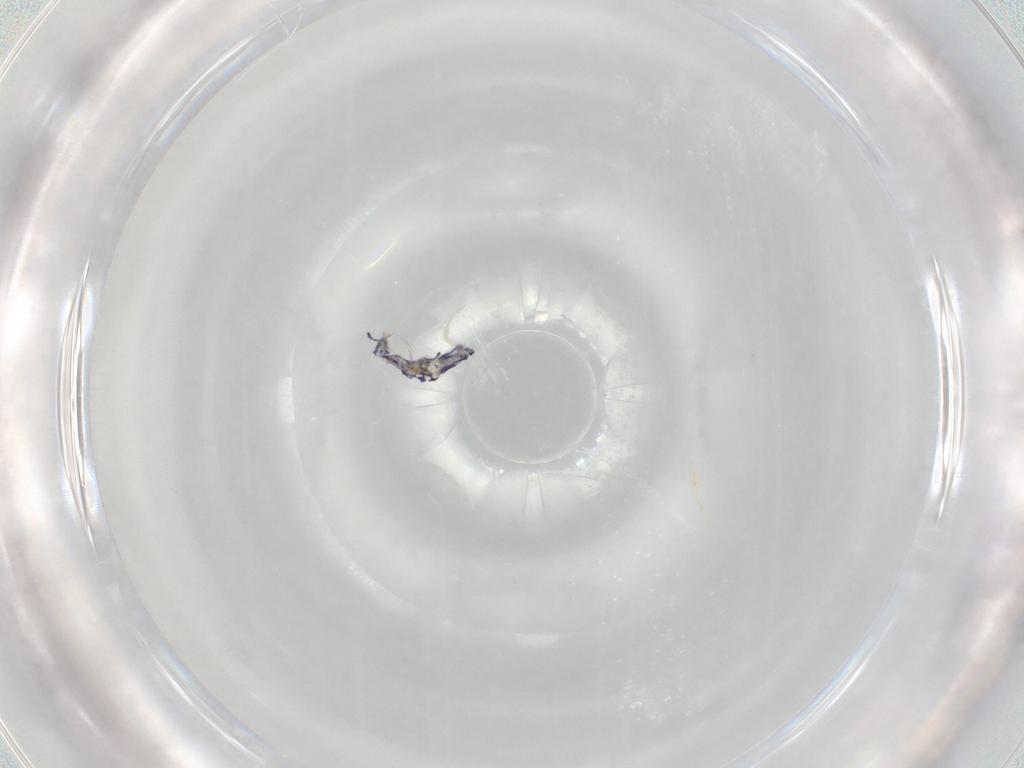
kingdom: Animalia
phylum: Arthropoda
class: Collembola
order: Entomobryomorpha
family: Entomobryidae
